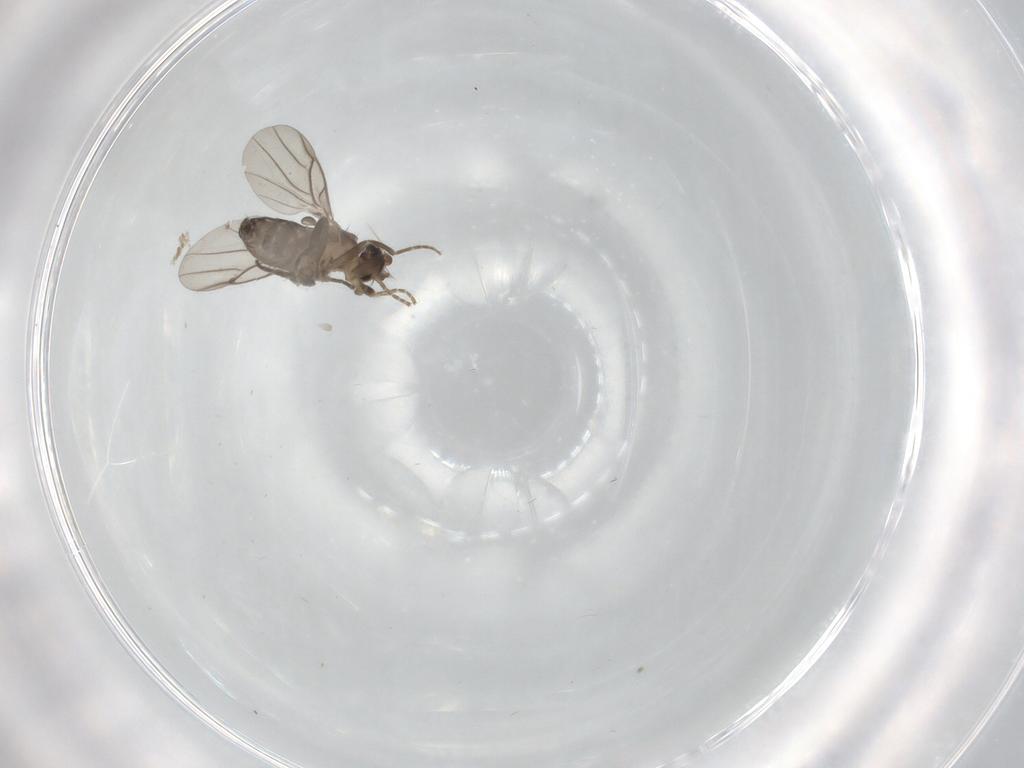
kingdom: Animalia
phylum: Arthropoda
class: Insecta
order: Diptera
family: Phoridae
